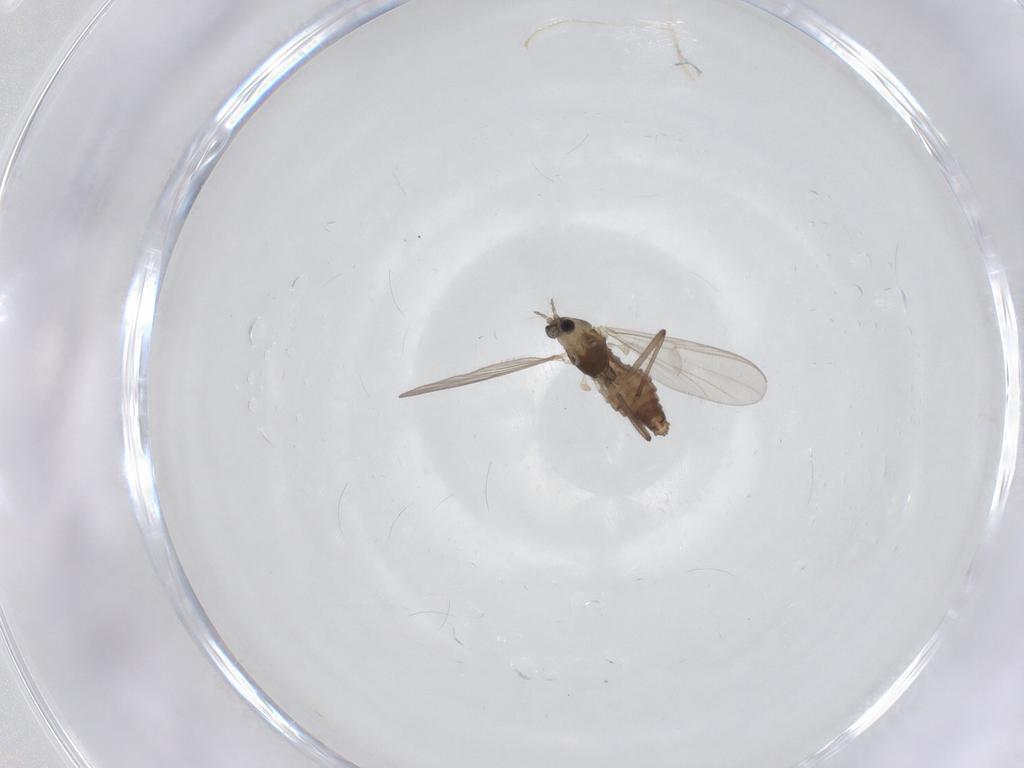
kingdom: Animalia
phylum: Arthropoda
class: Insecta
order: Diptera
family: Chironomidae
